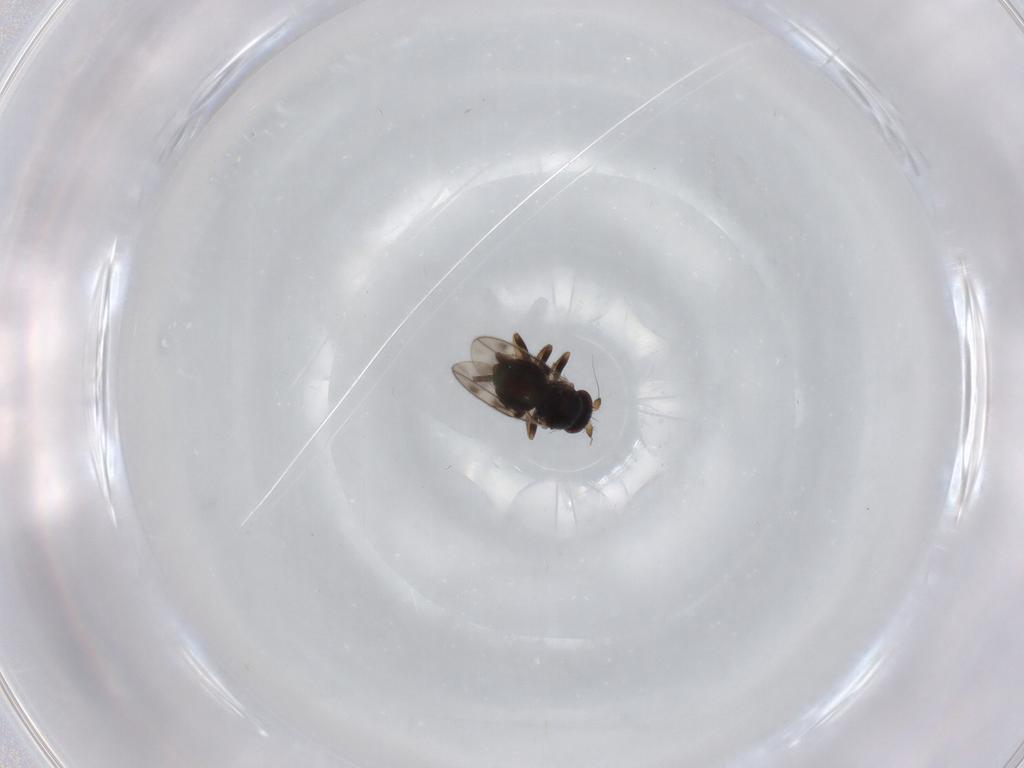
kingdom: Animalia
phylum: Arthropoda
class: Insecta
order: Diptera
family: Sphaeroceridae
